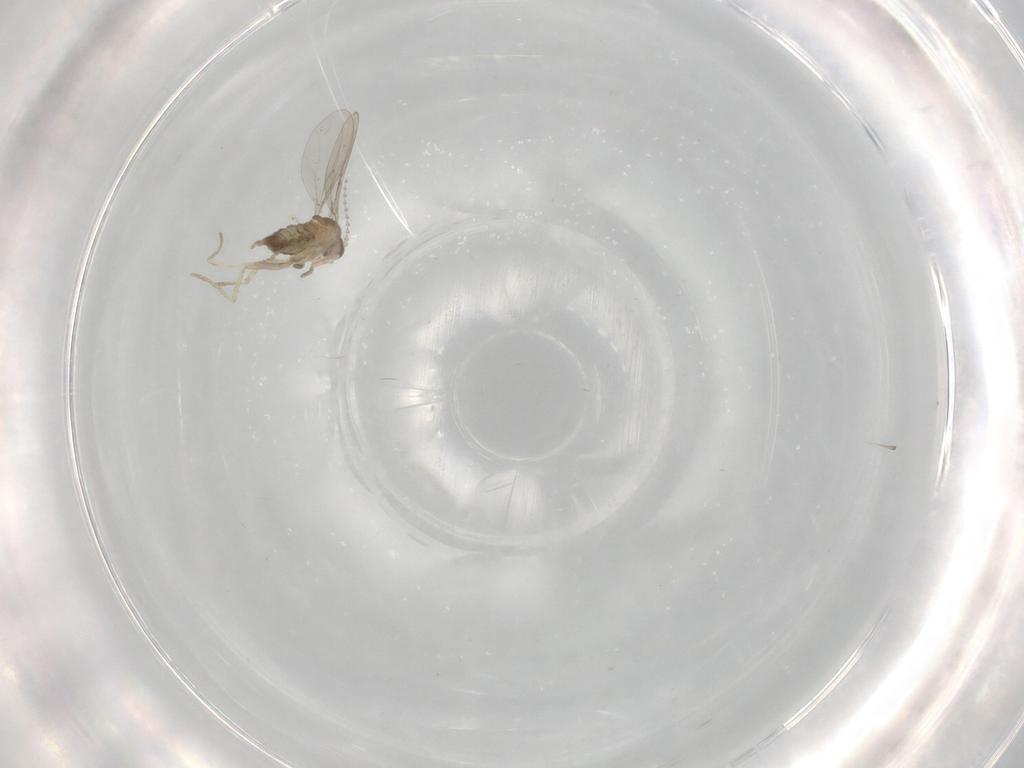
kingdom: Animalia
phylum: Arthropoda
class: Insecta
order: Diptera
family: Cecidomyiidae
